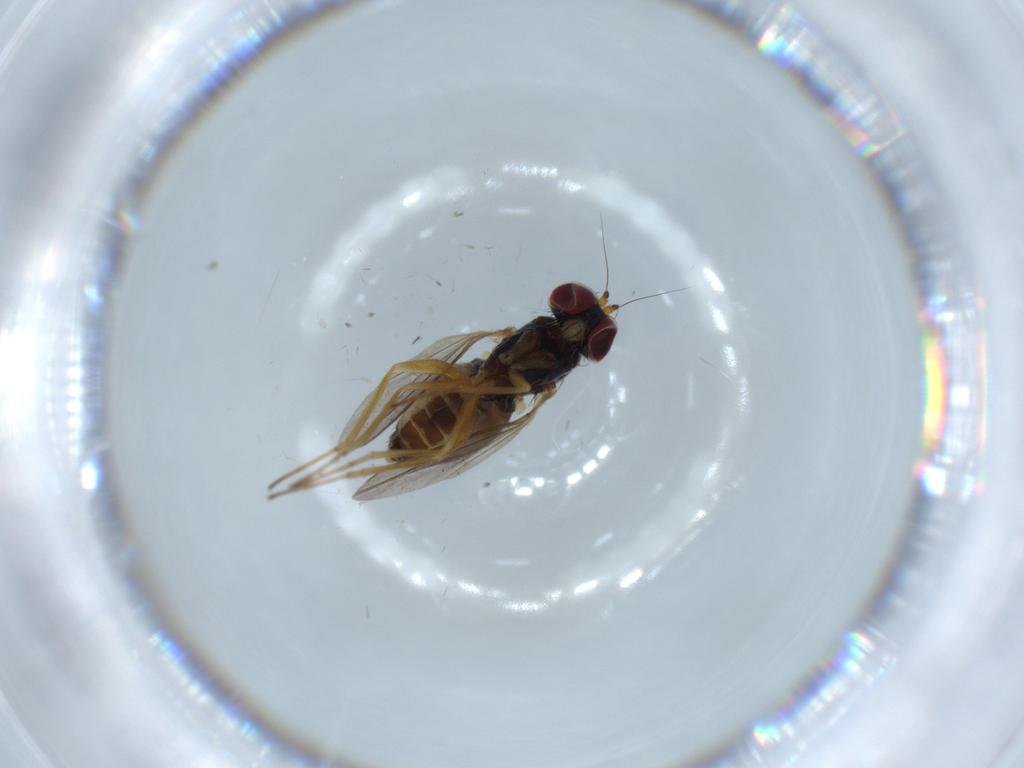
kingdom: Animalia
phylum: Arthropoda
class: Insecta
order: Diptera
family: Dolichopodidae
